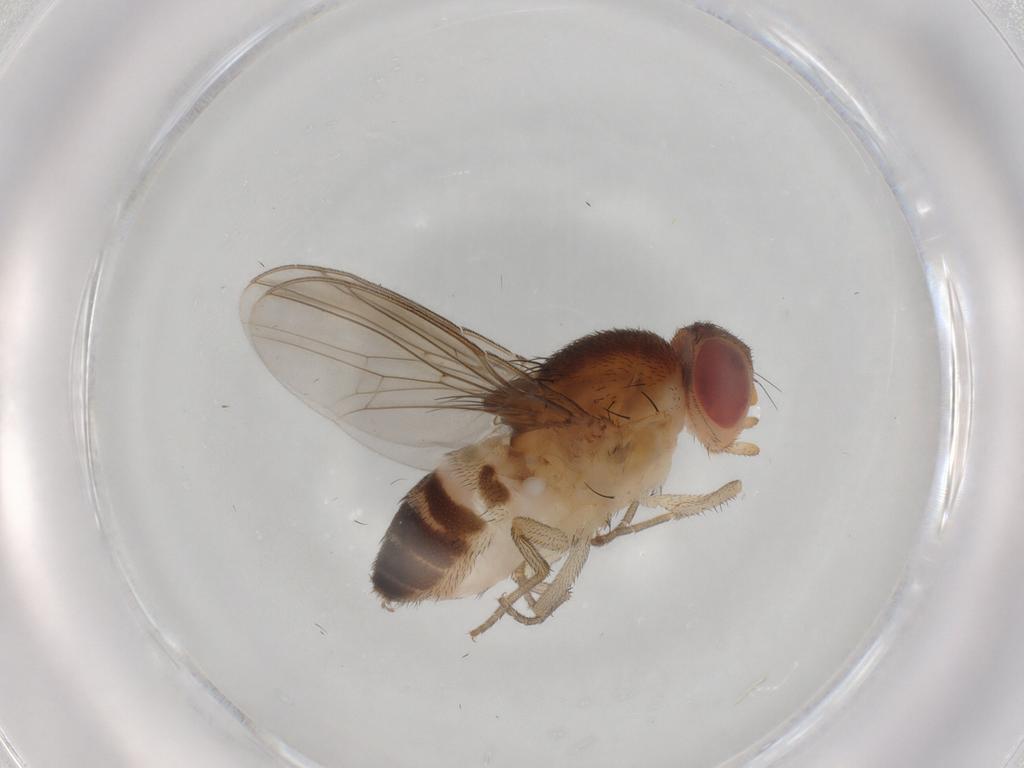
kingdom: Animalia
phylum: Arthropoda
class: Insecta
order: Diptera
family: Drosophilidae
